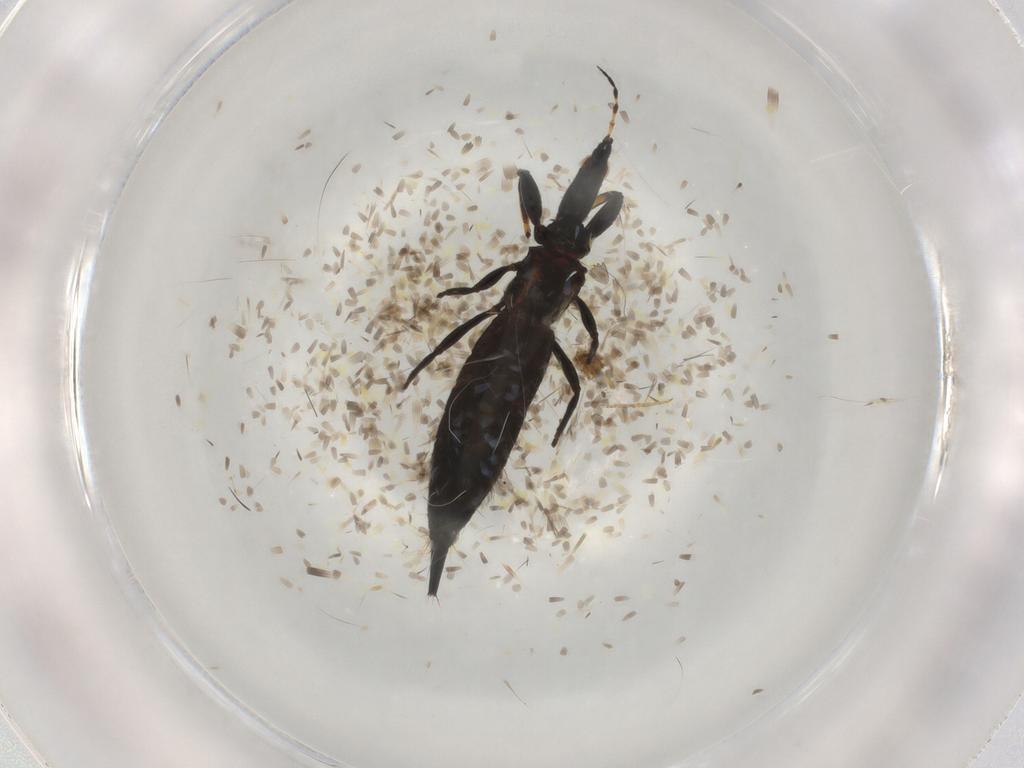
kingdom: Animalia
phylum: Arthropoda
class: Insecta
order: Thysanoptera
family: Phlaeothripidae
